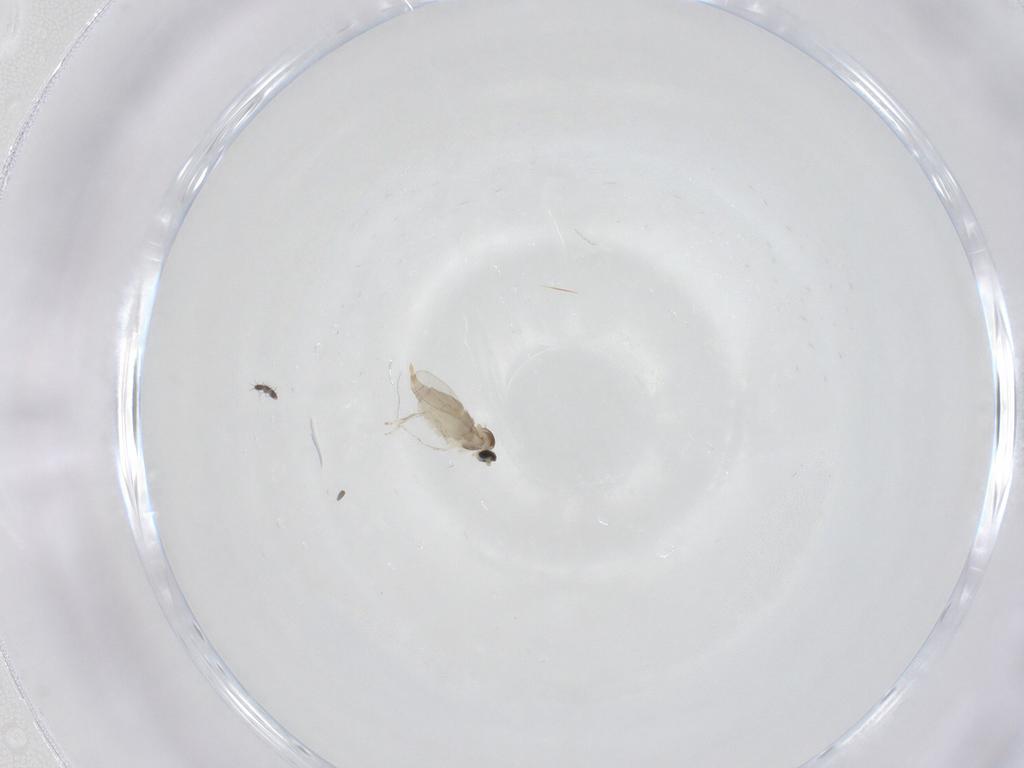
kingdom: Animalia
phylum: Arthropoda
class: Insecta
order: Diptera
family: Limoniidae
